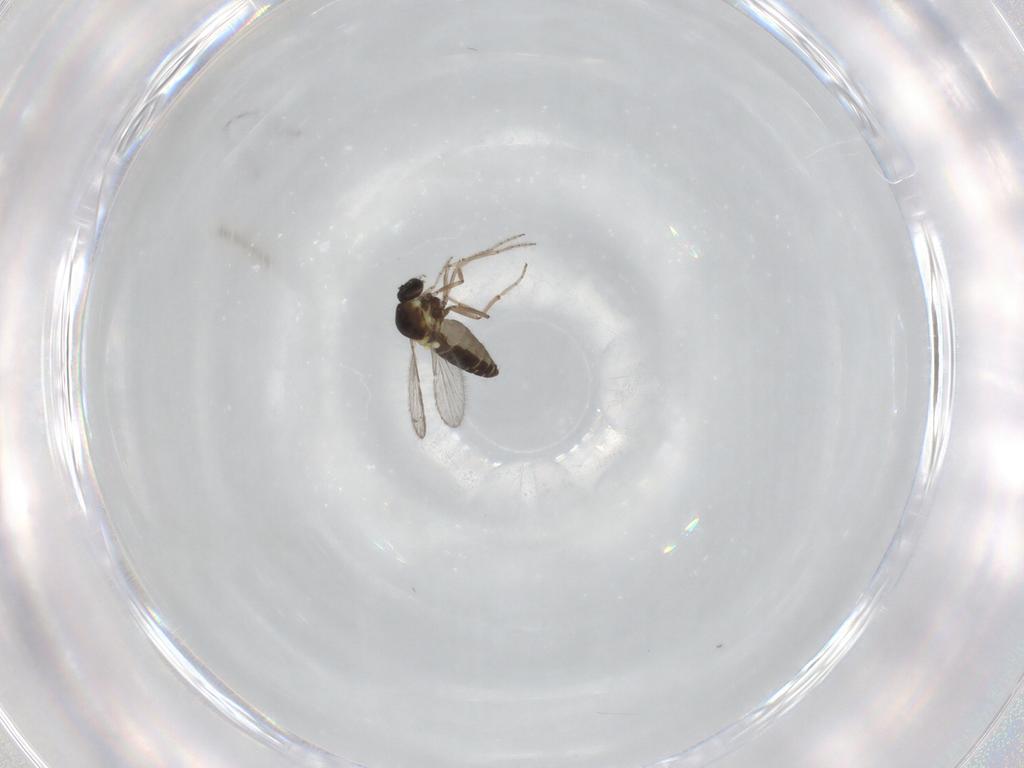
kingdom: Animalia
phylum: Arthropoda
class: Insecta
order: Diptera
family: Ceratopogonidae
